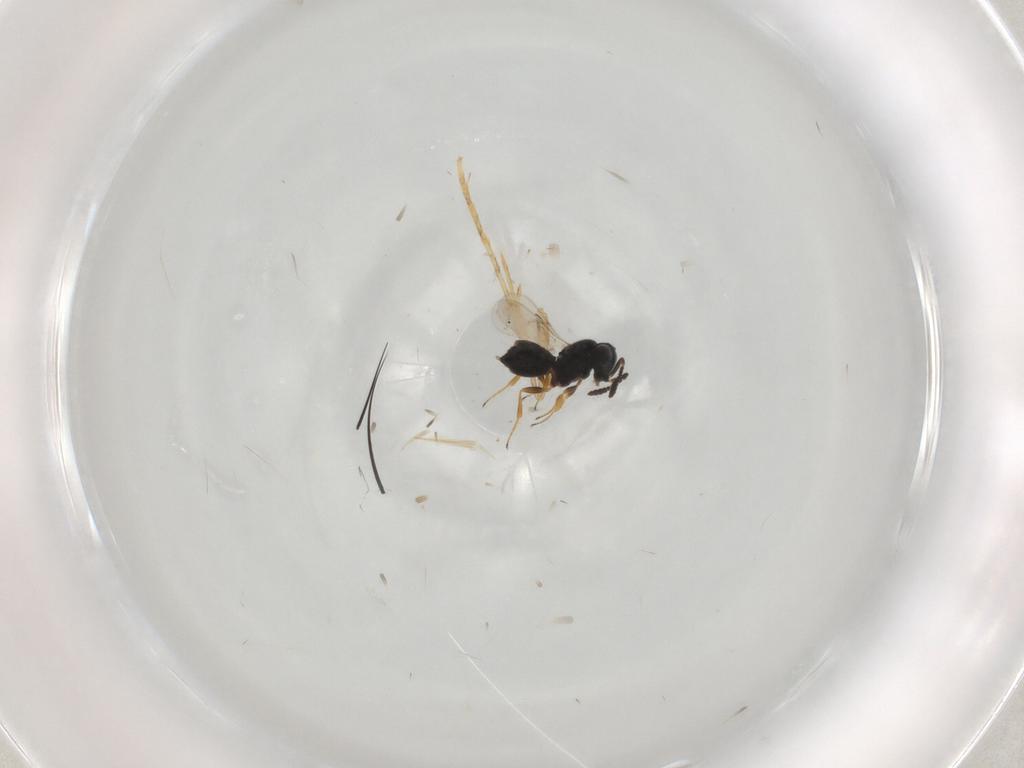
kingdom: Animalia
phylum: Arthropoda
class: Insecta
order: Hymenoptera
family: Scelionidae
